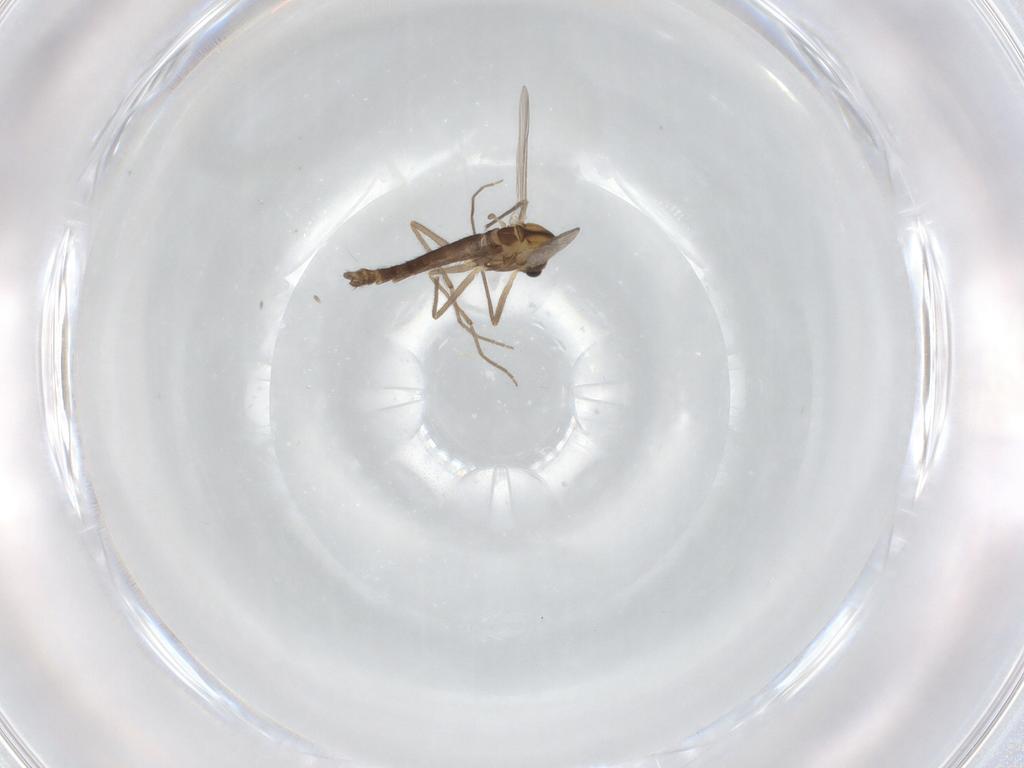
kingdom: Animalia
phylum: Arthropoda
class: Insecta
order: Diptera
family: Chironomidae
